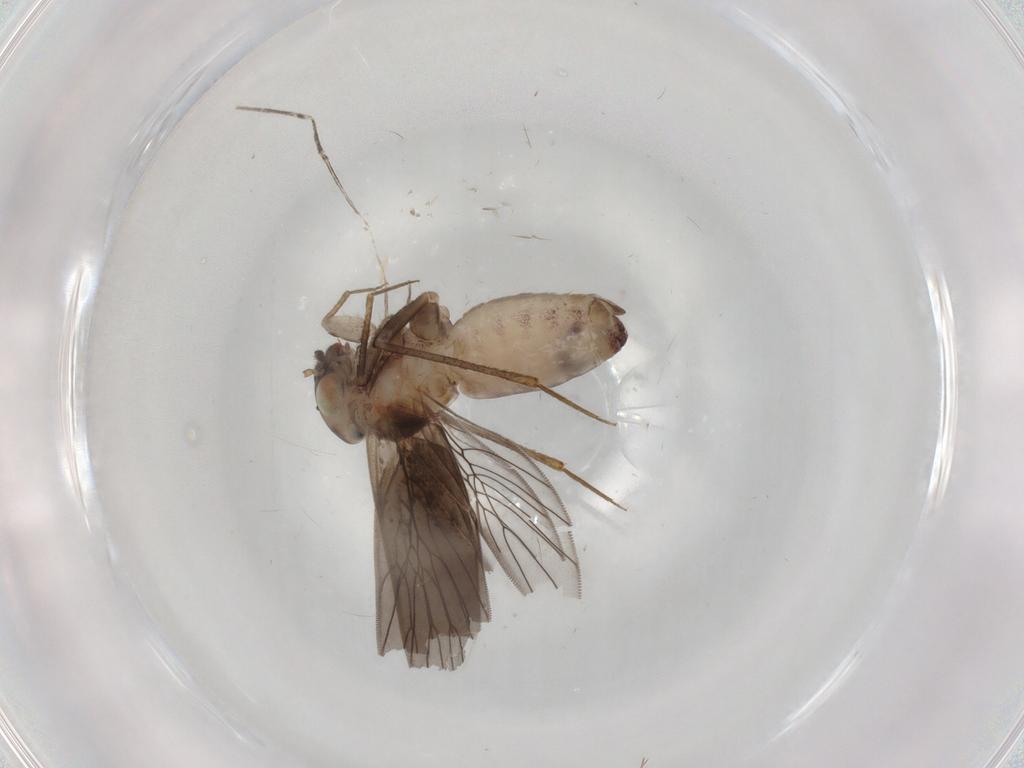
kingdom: Animalia
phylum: Arthropoda
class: Insecta
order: Psocodea
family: Lepidopsocidae
